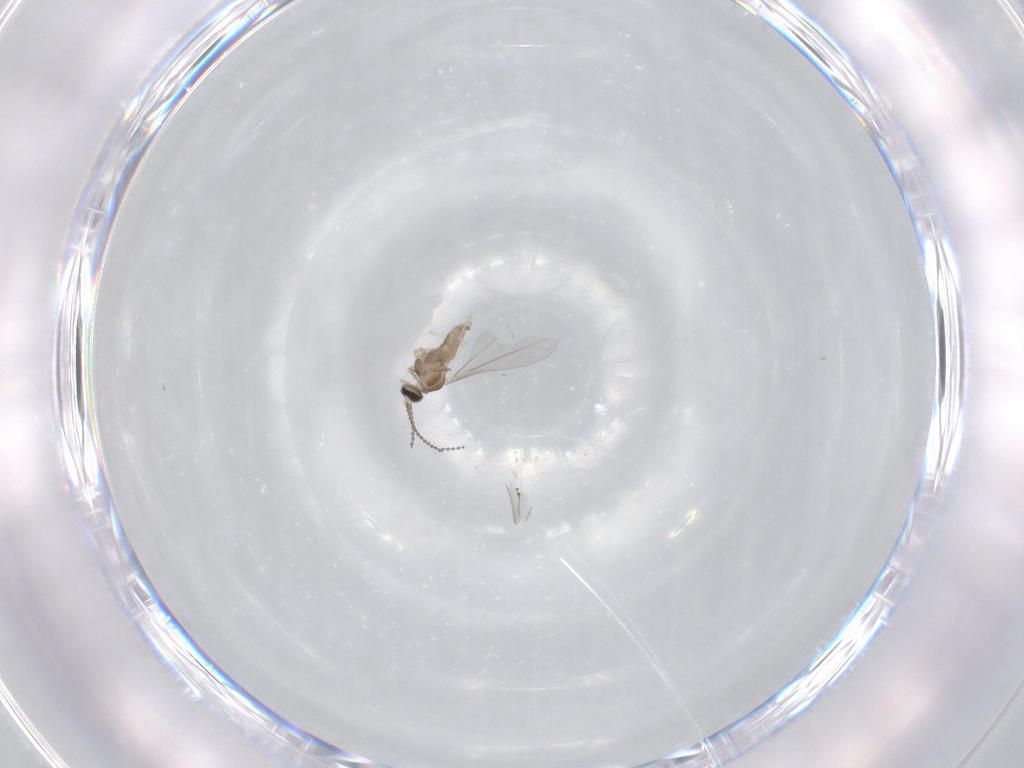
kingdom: Animalia
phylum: Arthropoda
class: Insecta
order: Diptera
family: Cecidomyiidae
